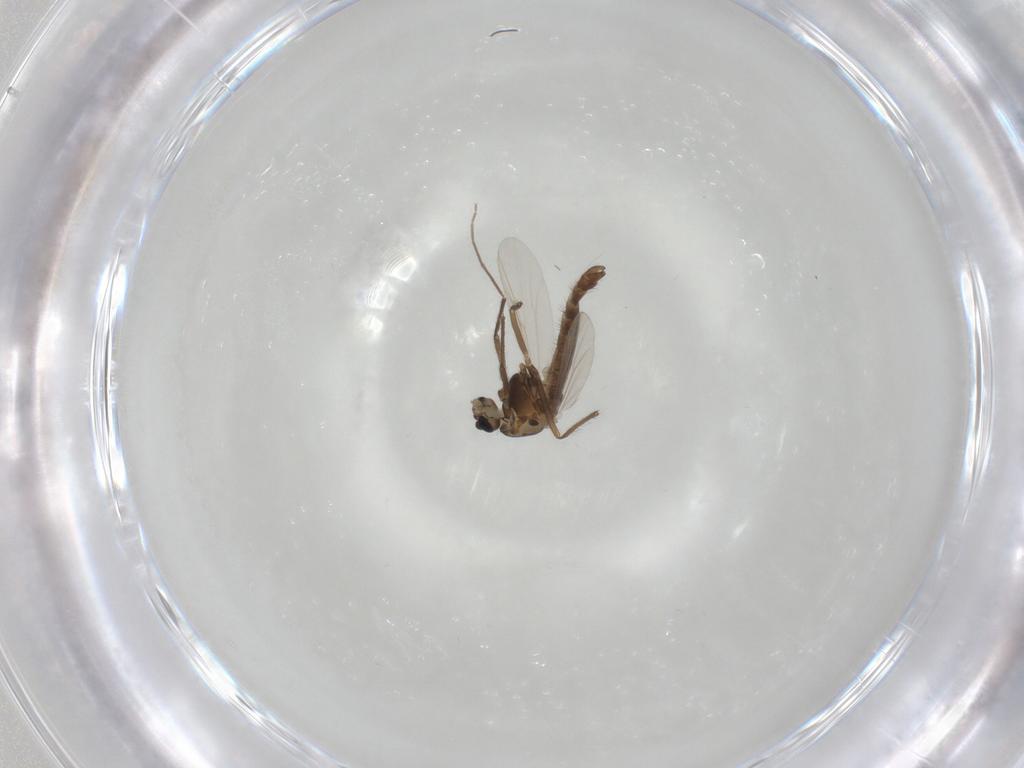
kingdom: Animalia
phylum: Arthropoda
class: Insecta
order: Diptera
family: Chironomidae
